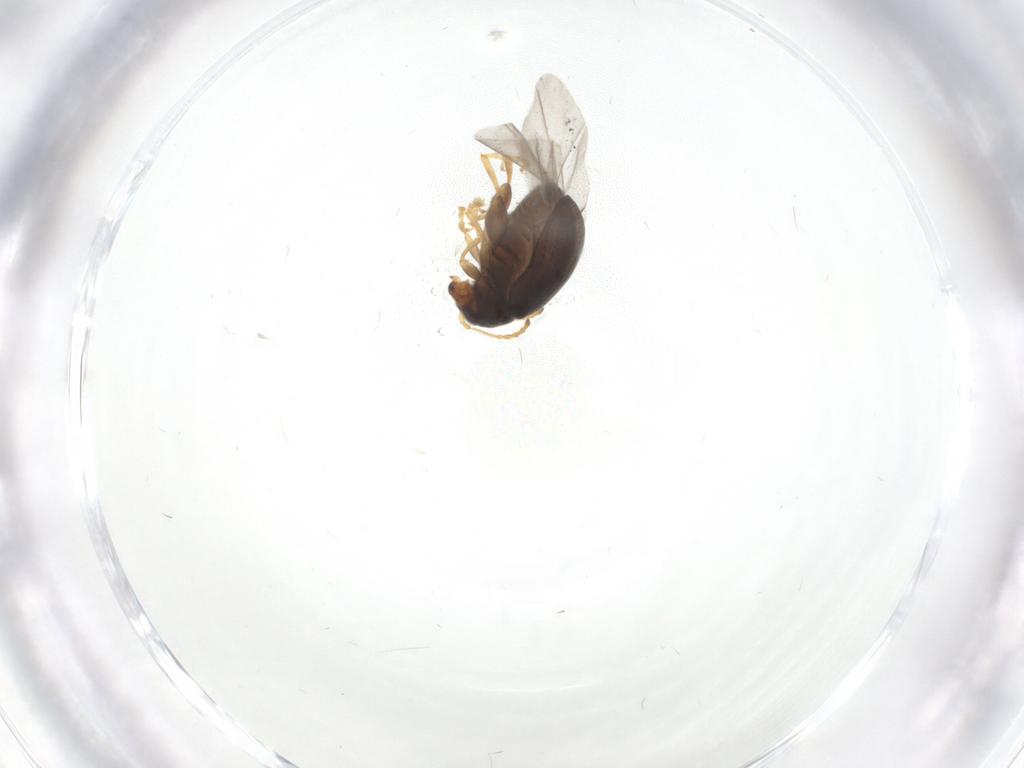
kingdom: Animalia
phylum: Arthropoda
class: Insecta
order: Coleoptera
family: Chrysomelidae
